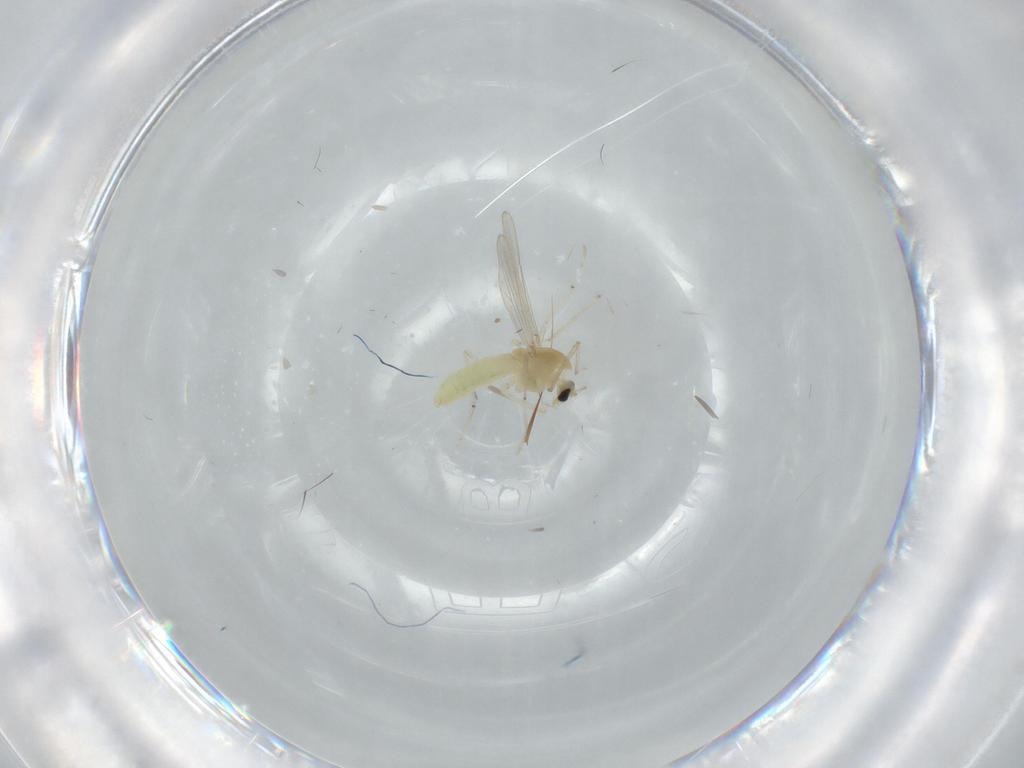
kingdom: Animalia
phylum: Arthropoda
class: Insecta
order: Diptera
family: Chironomidae
